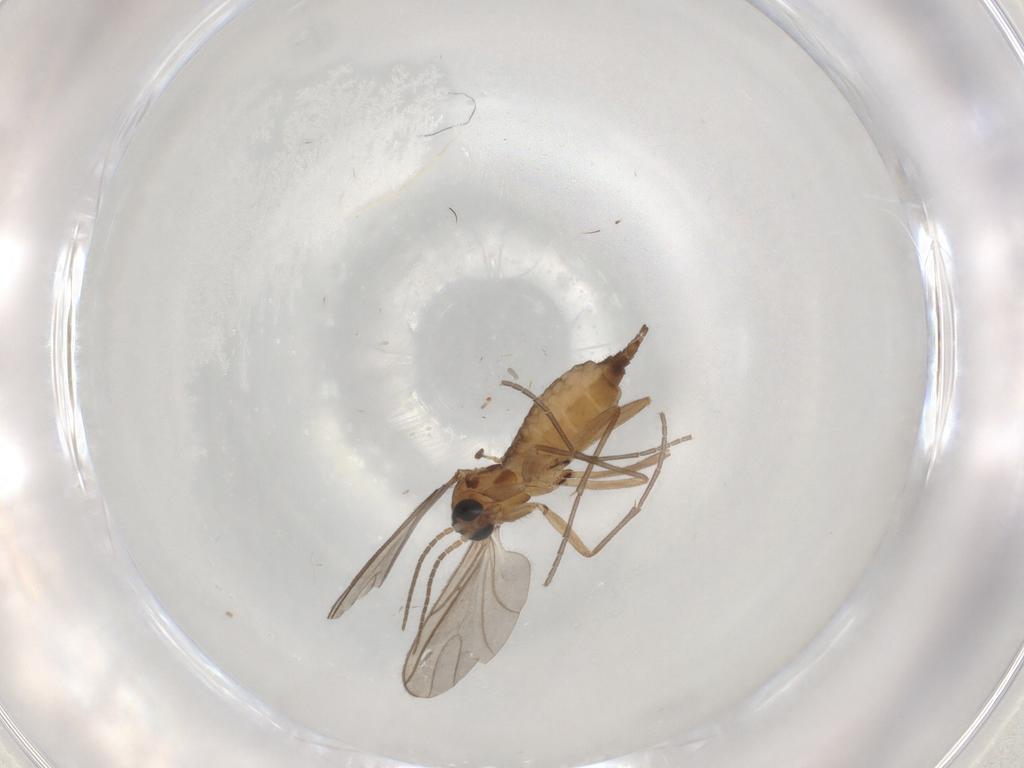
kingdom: Animalia
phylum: Arthropoda
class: Insecta
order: Diptera
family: Sciaridae
